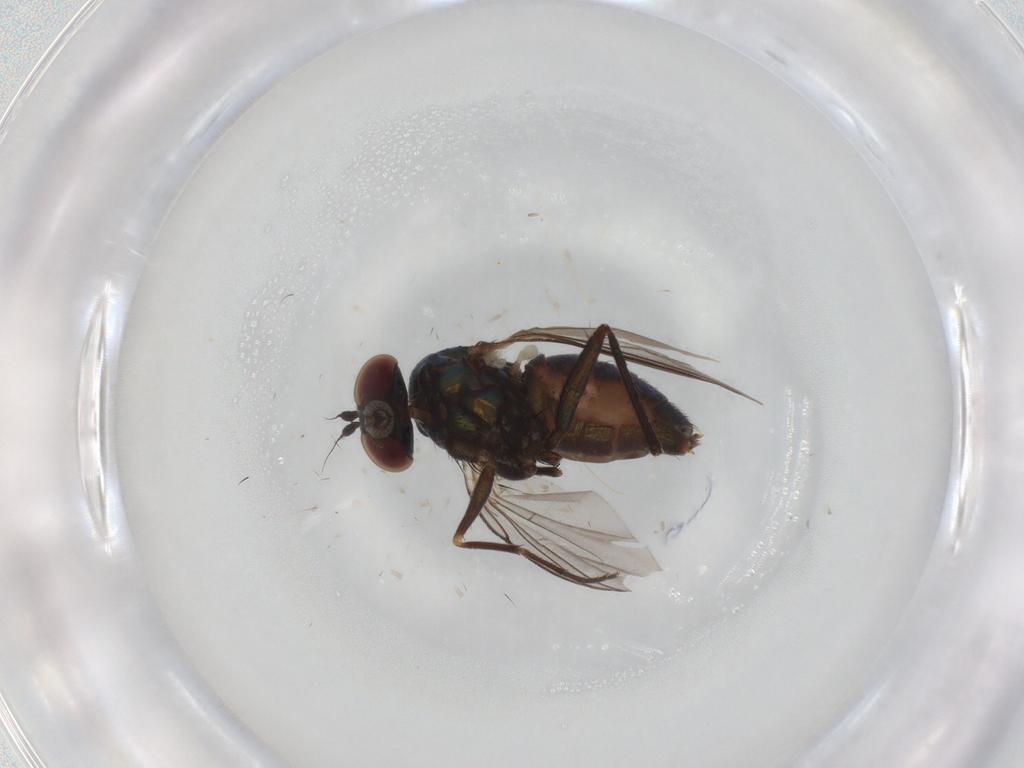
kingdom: Animalia
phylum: Arthropoda
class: Insecta
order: Diptera
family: Dolichopodidae
